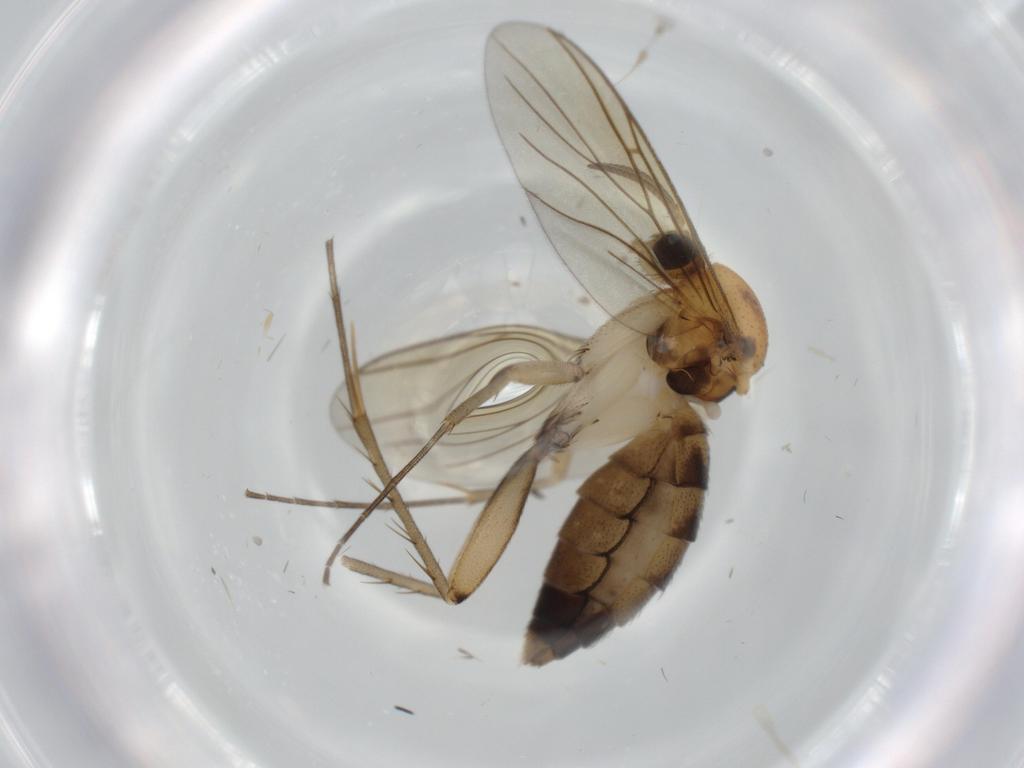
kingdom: Animalia
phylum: Arthropoda
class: Insecta
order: Diptera
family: Mycetophilidae
